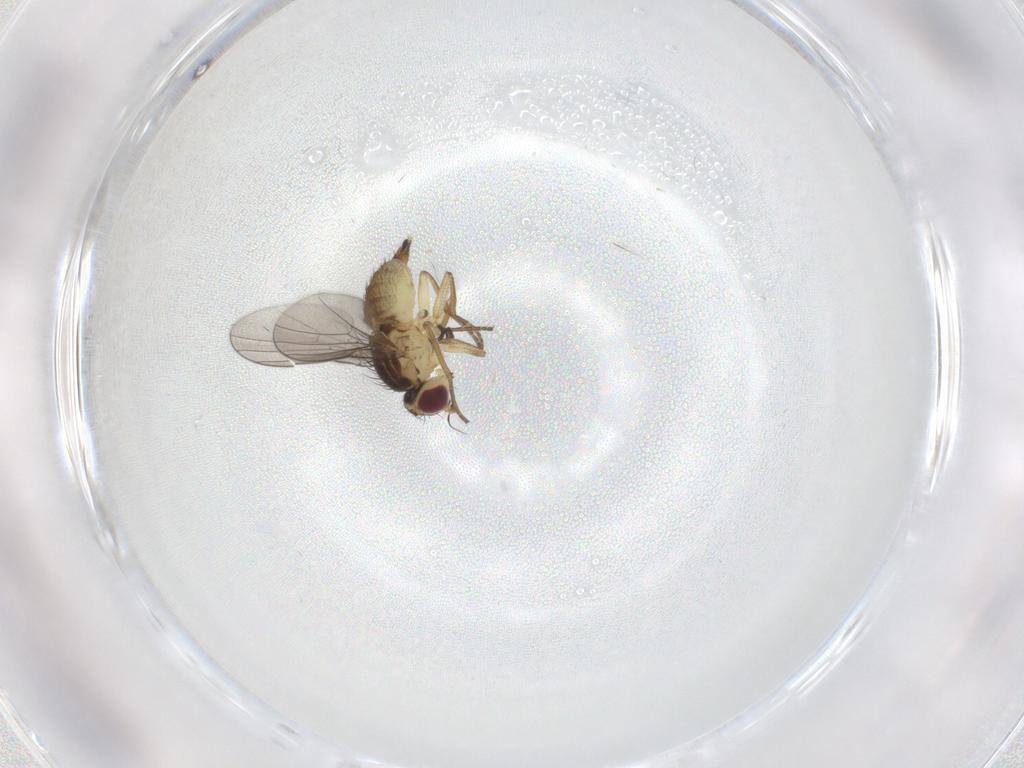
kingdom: Animalia
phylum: Arthropoda
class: Insecta
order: Diptera
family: Agromyzidae
